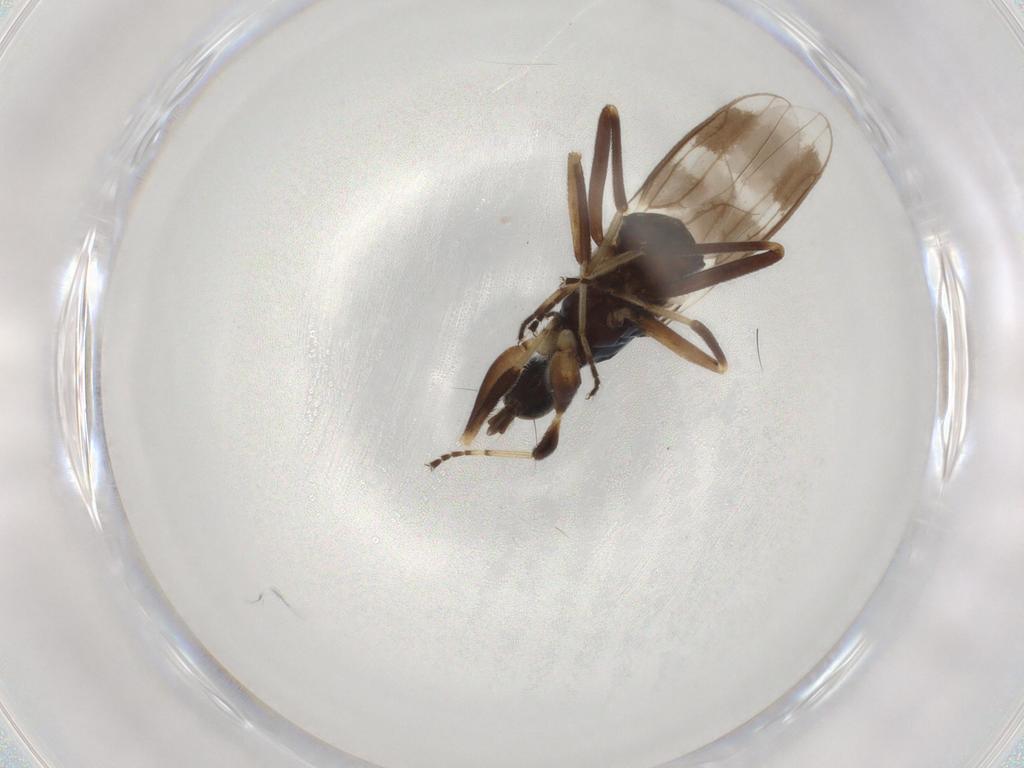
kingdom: Animalia
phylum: Arthropoda
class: Insecta
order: Diptera
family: Hybotidae
